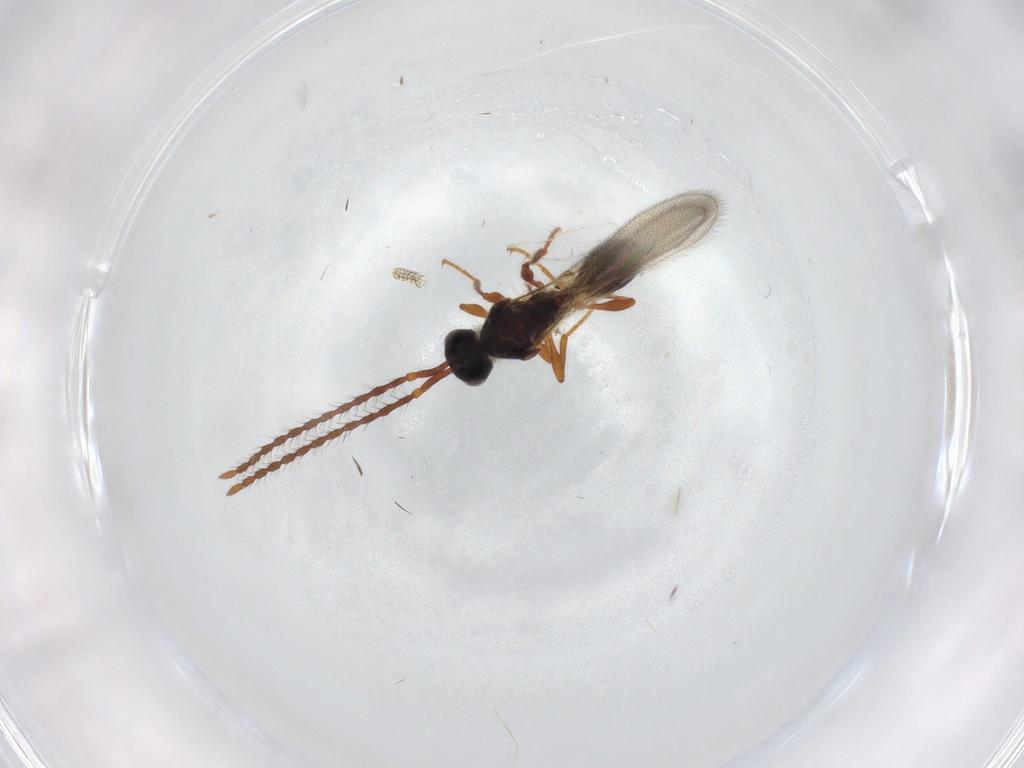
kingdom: Animalia
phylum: Arthropoda
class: Insecta
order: Hymenoptera
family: Diapriidae
